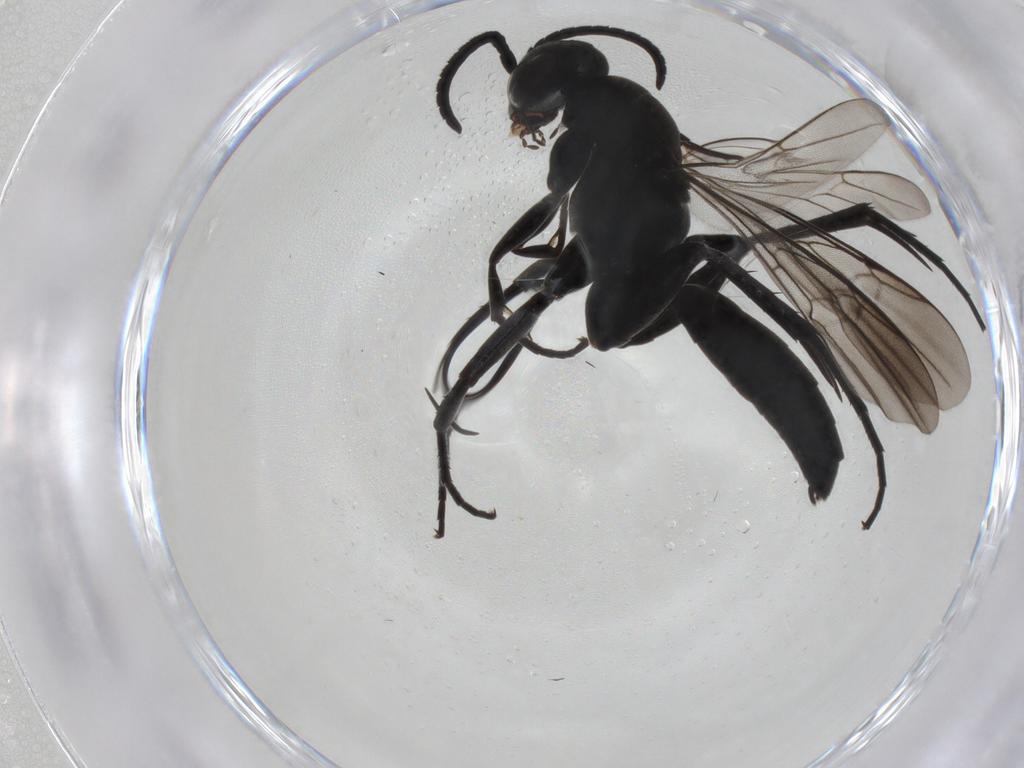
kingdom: Animalia
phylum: Arthropoda
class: Insecta
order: Hymenoptera
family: Pompilidae
